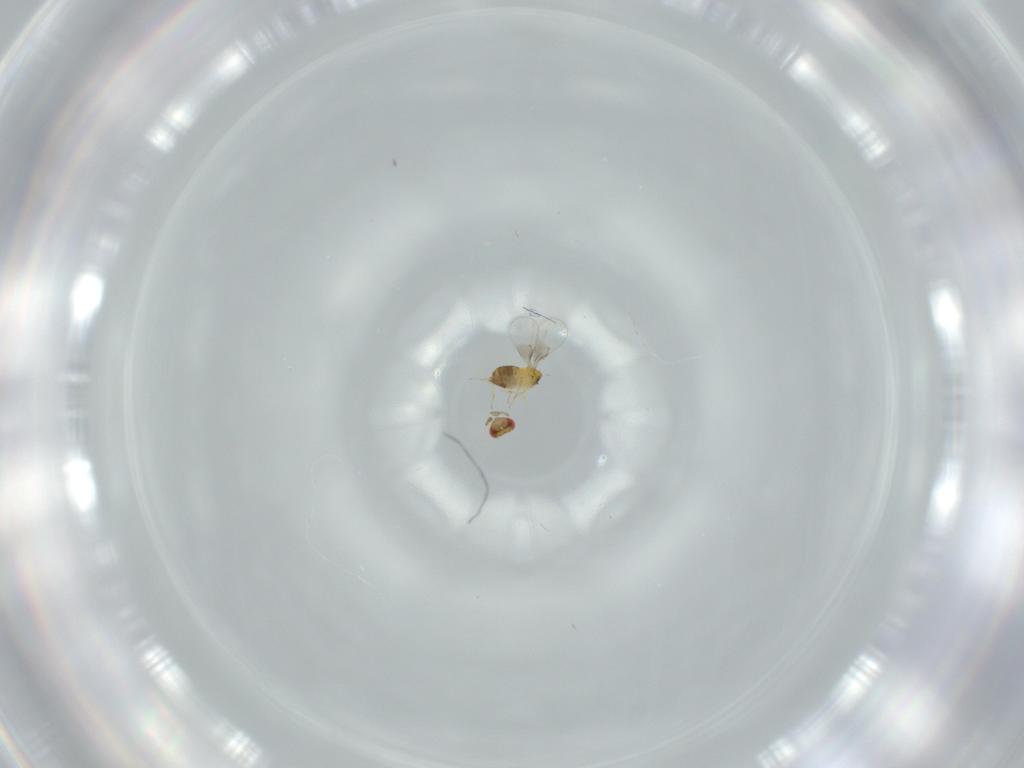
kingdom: Animalia
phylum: Arthropoda
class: Insecta
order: Hymenoptera
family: Trichogrammatidae
